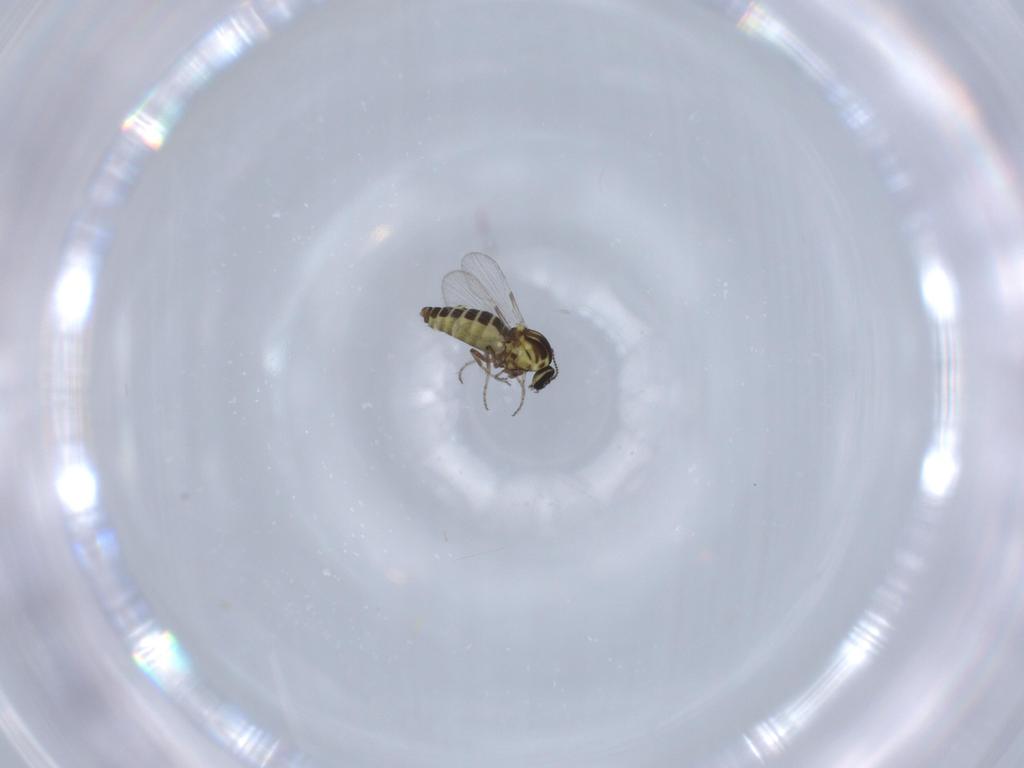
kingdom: Animalia
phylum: Arthropoda
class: Insecta
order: Diptera
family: Ceratopogonidae
